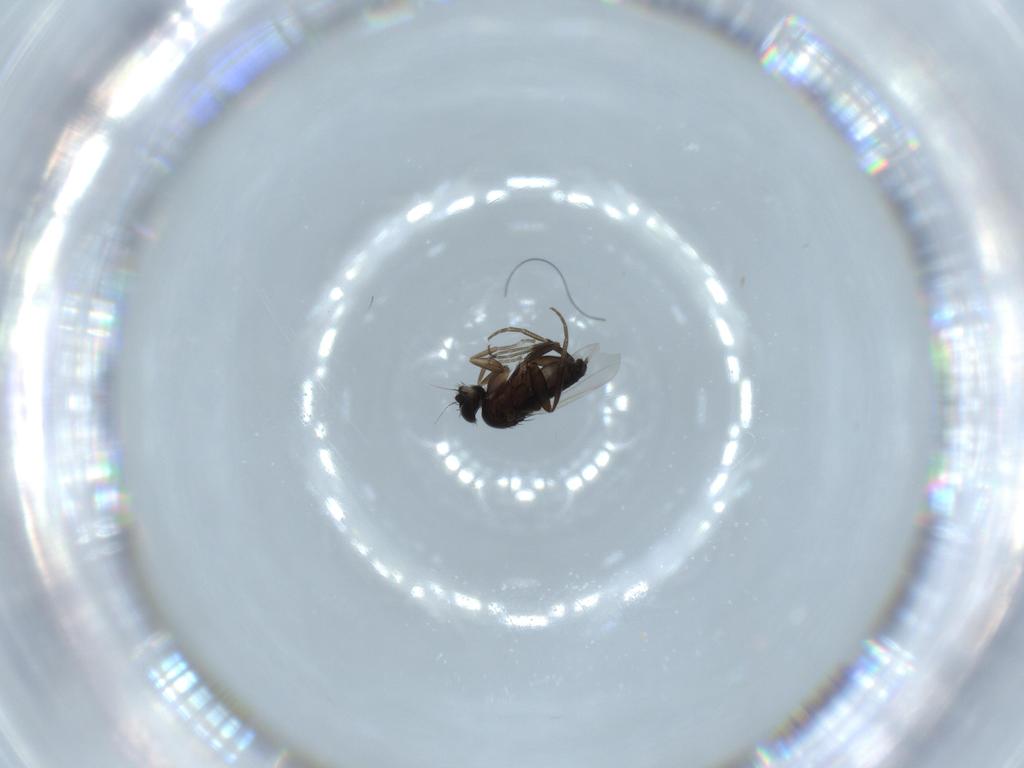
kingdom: Animalia
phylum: Arthropoda
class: Insecta
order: Diptera
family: Phoridae
